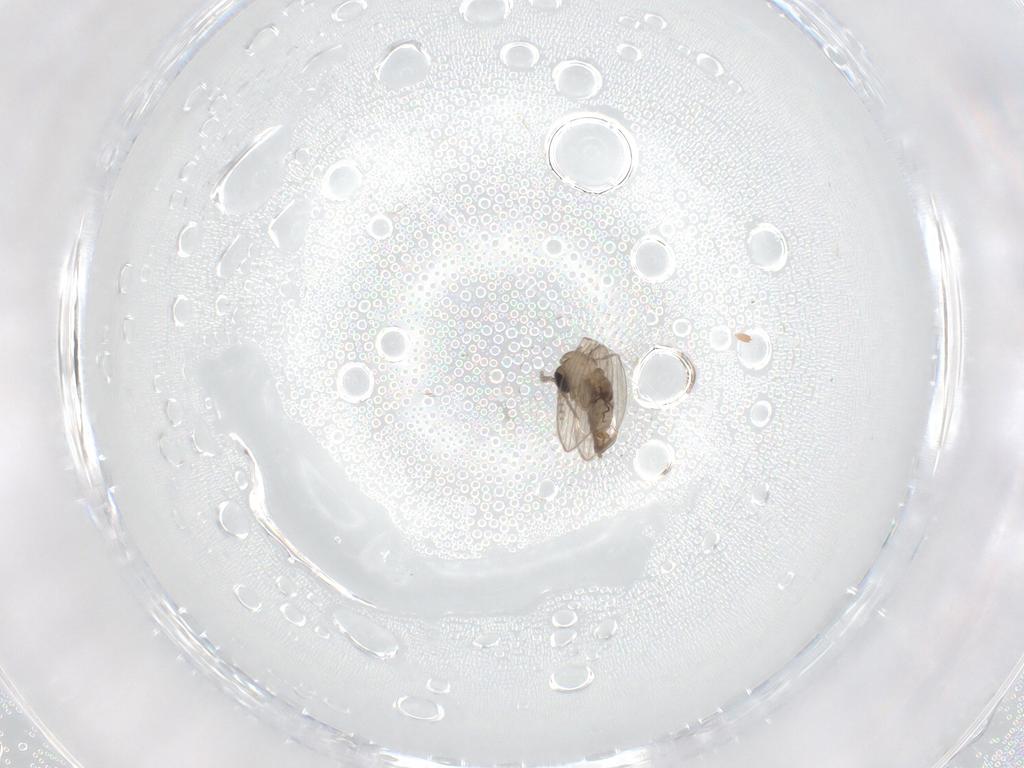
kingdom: Animalia
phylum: Arthropoda
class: Insecta
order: Diptera
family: Psychodidae
